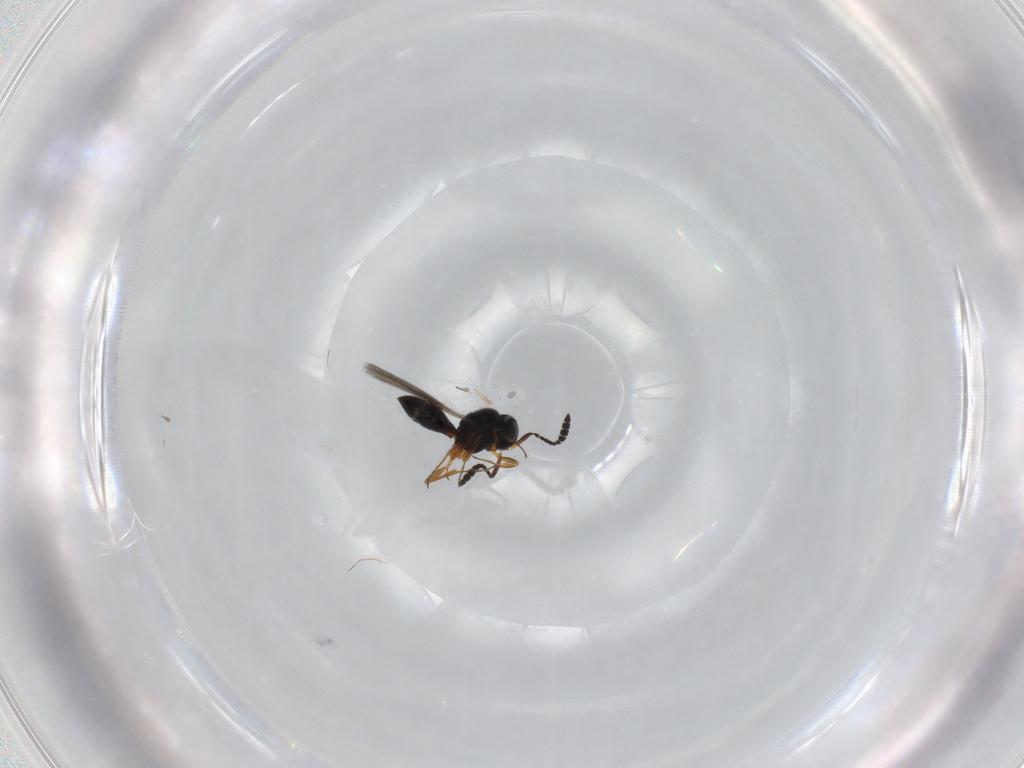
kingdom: Animalia
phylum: Arthropoda
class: Insecta
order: Hymenoptera
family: Scelionidae
